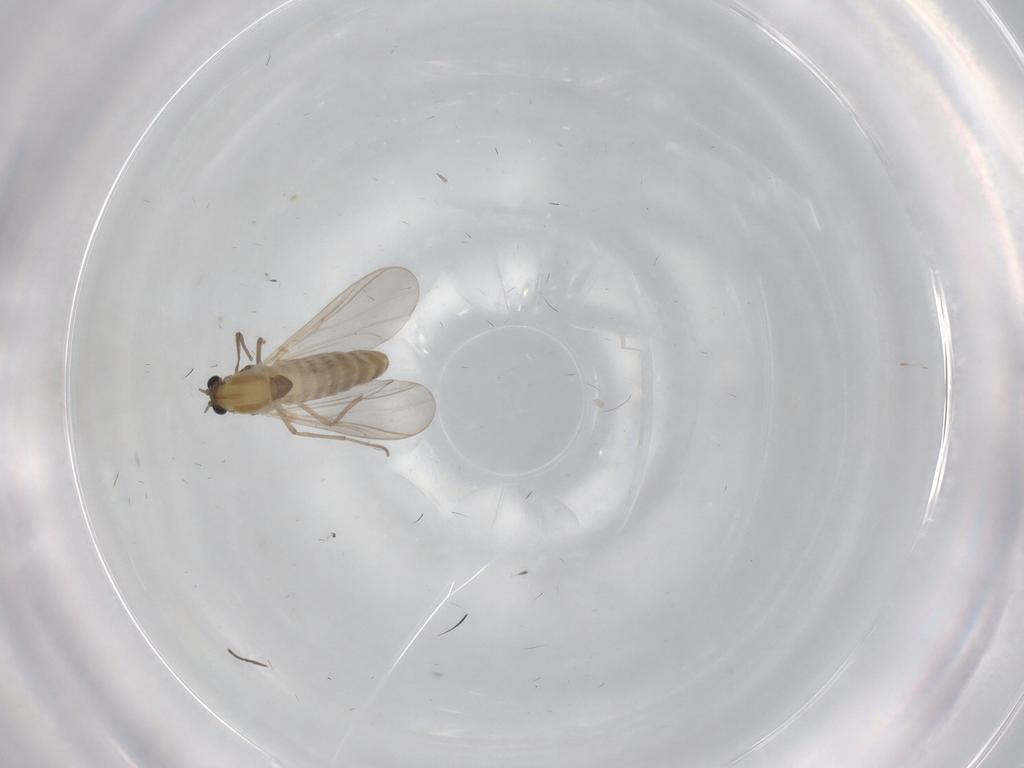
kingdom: Animalia
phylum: Arthropoda
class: Insecta
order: Diptera
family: Chironomidae
